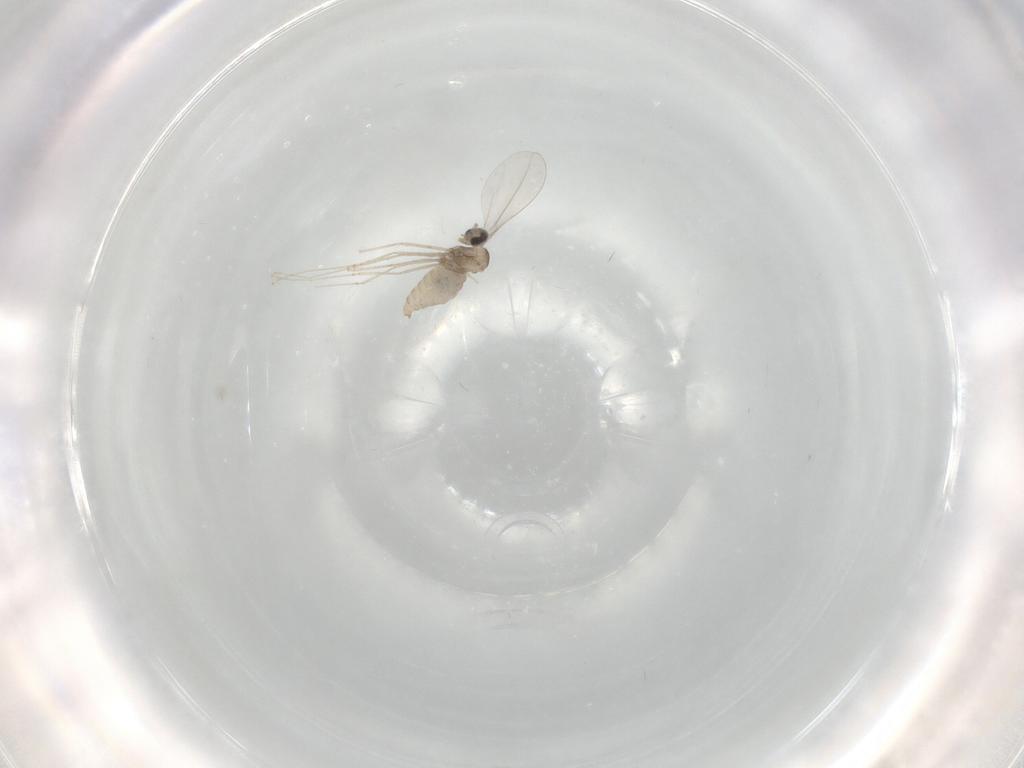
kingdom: Animalia
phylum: Arthropoda
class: Insecta
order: Diptera
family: Cecidomyiidae
